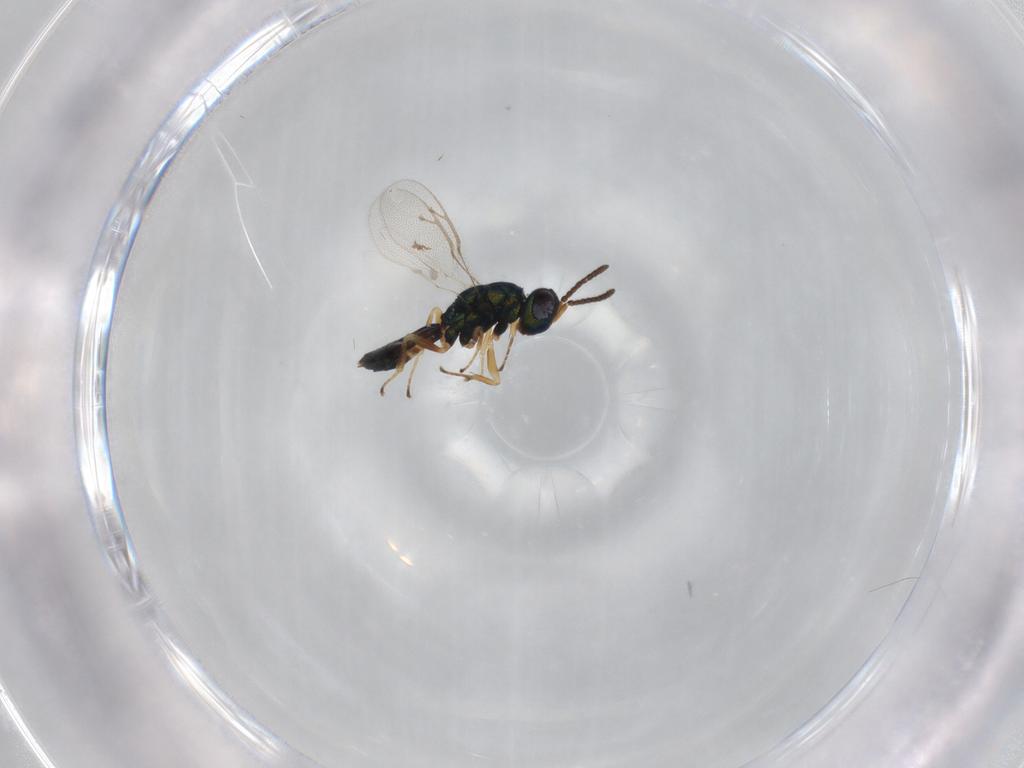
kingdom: Animalia
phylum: Arthropoda
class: Insecta
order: Hymenoptera
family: Pteromalidae
